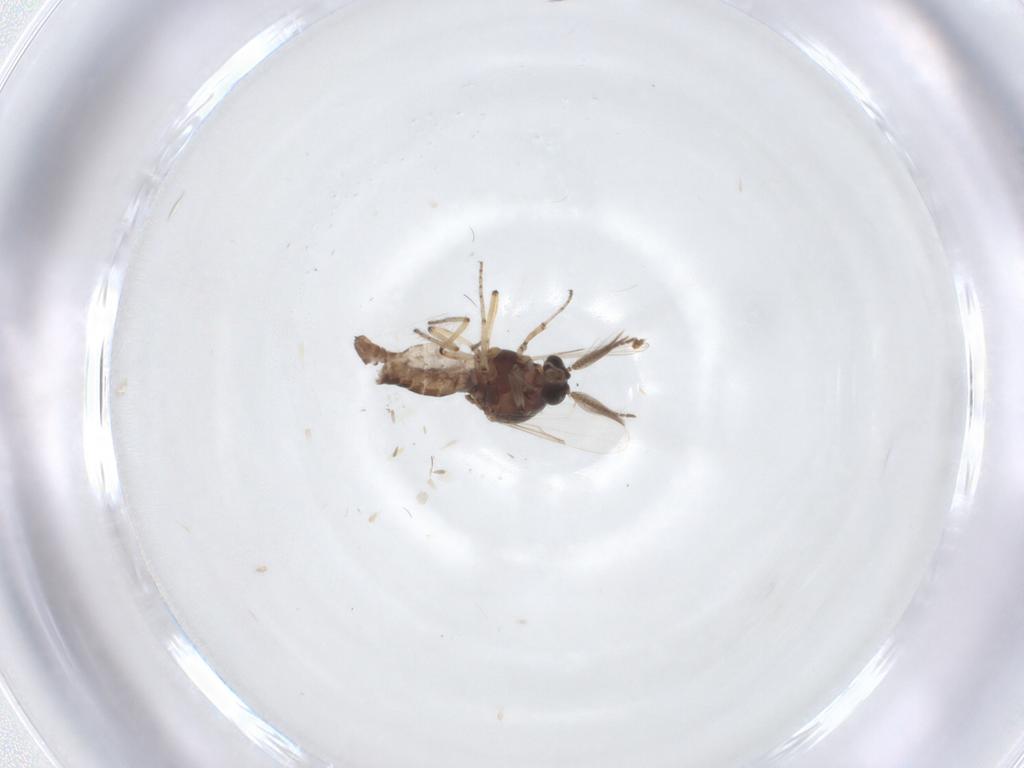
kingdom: Animalia
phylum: Arthropoda
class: Insecta
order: Diptera
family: Ceratopogonidae
